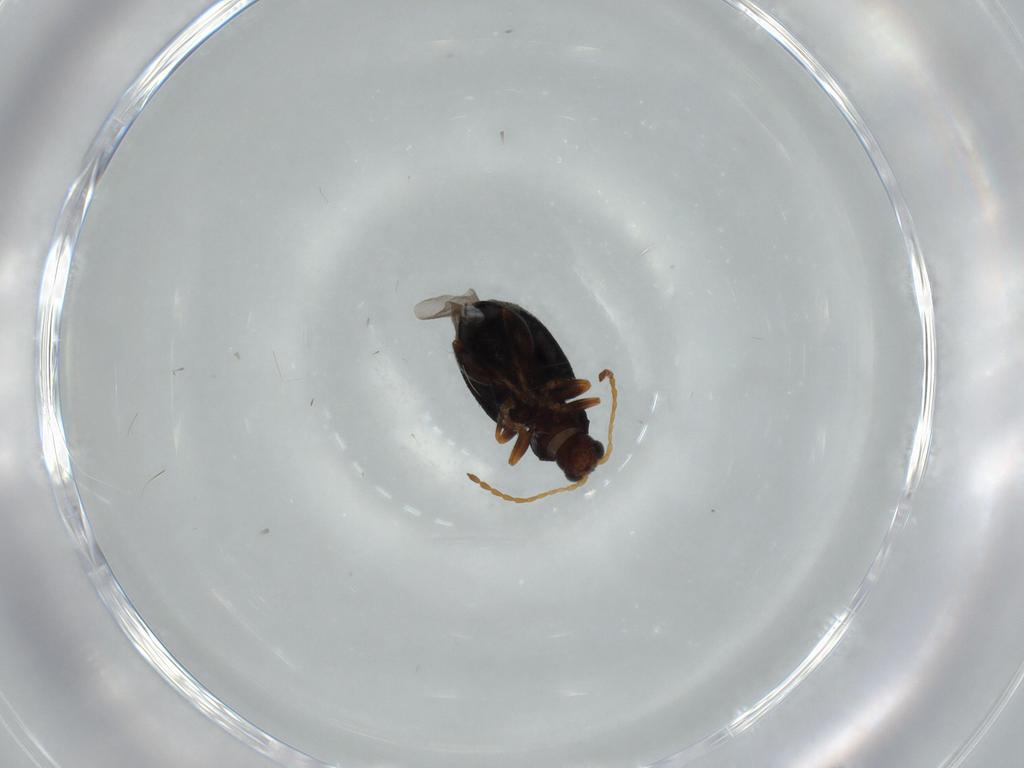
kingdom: Animalia
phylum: Arthropoda
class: Insecta
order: Coleoptera
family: Chrysomelidae
